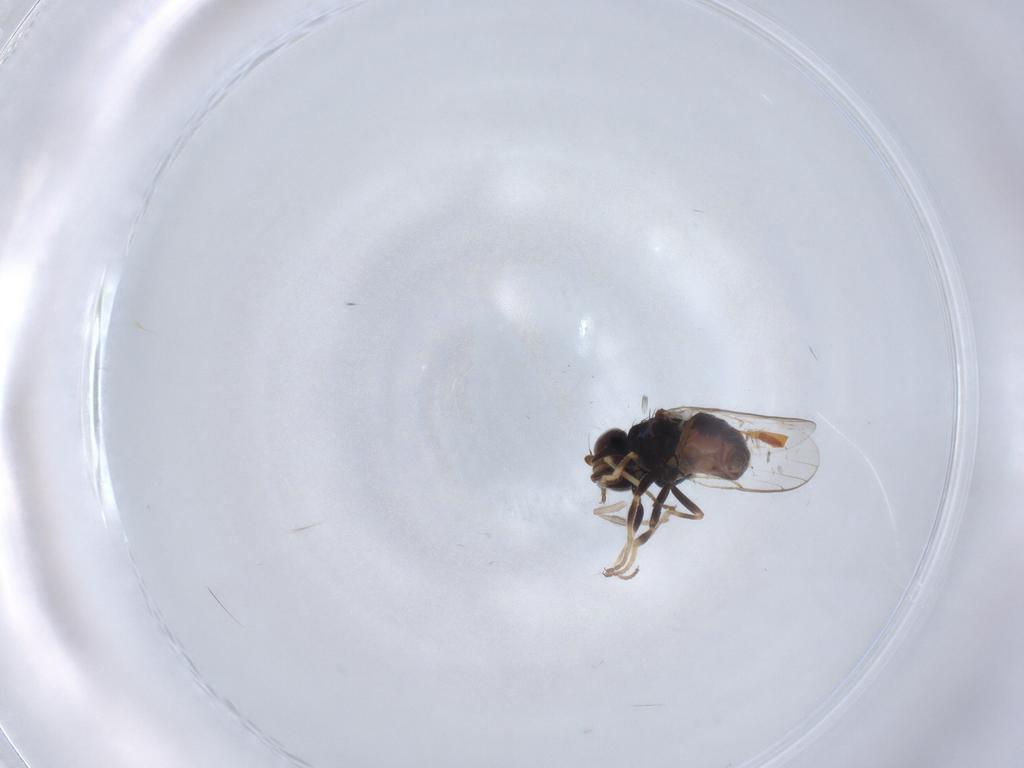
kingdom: Animalia
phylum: Arthropoda
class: Insecta
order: Diptera
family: Chloropidae
